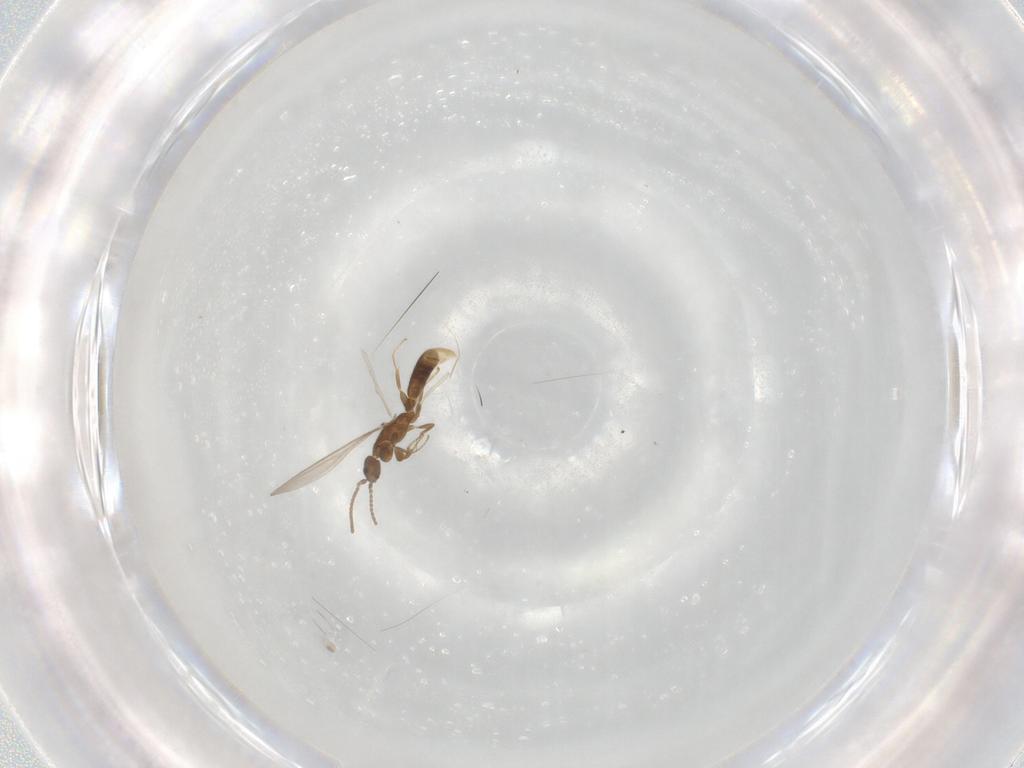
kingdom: Animalia
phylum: Arthropoda
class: Insecta
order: Hymenoptera
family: Formicidae
